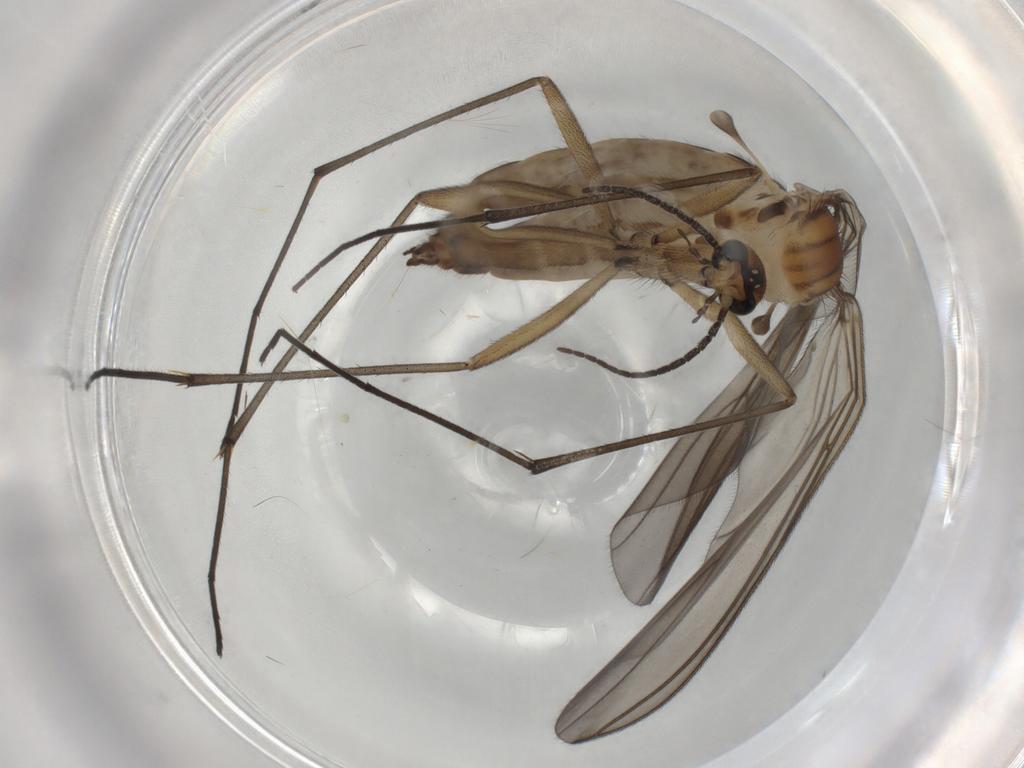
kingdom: Animalia
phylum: Arthropoda
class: Insecta
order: Diptera
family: Sciaridae
